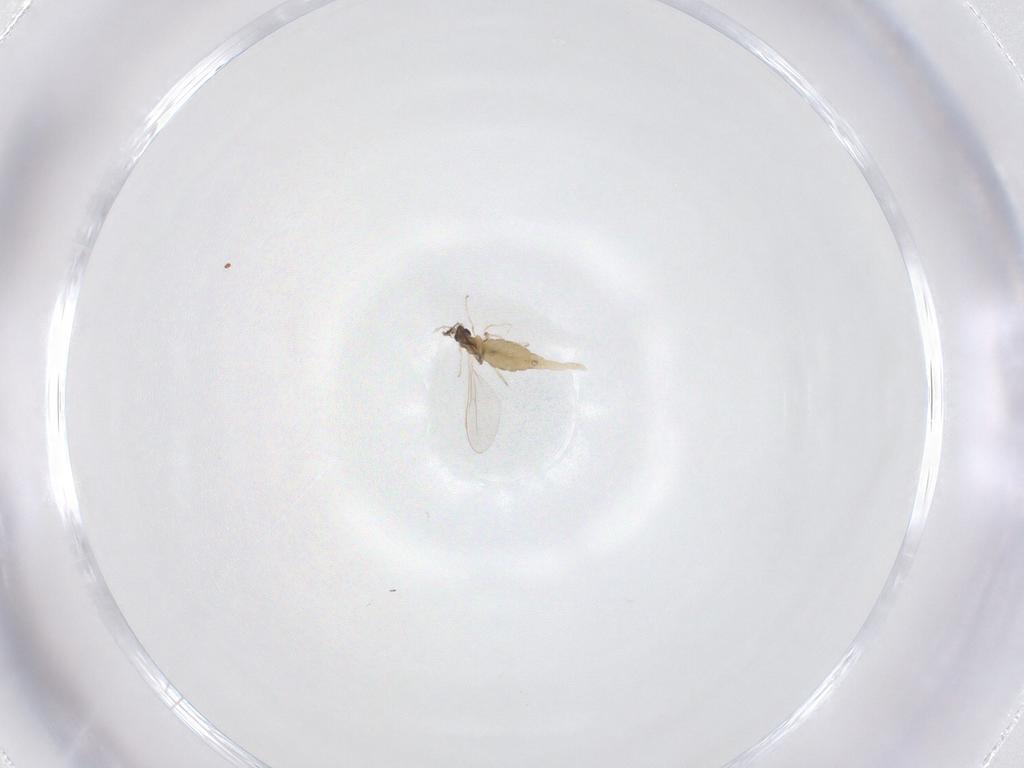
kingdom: Animalia
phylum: Arthropoda
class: Insecta
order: Diptera
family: Cecidomyiidae
